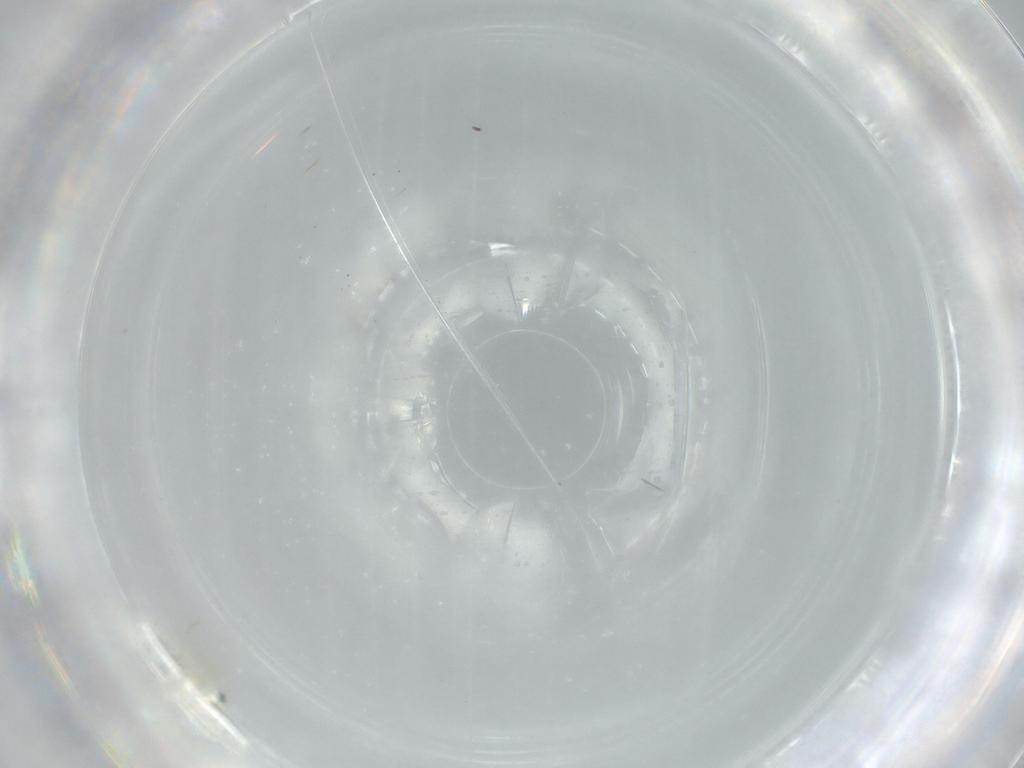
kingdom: Animalia
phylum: Arthropoda
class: Insecta
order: Diptera
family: Cecidomyiidae
